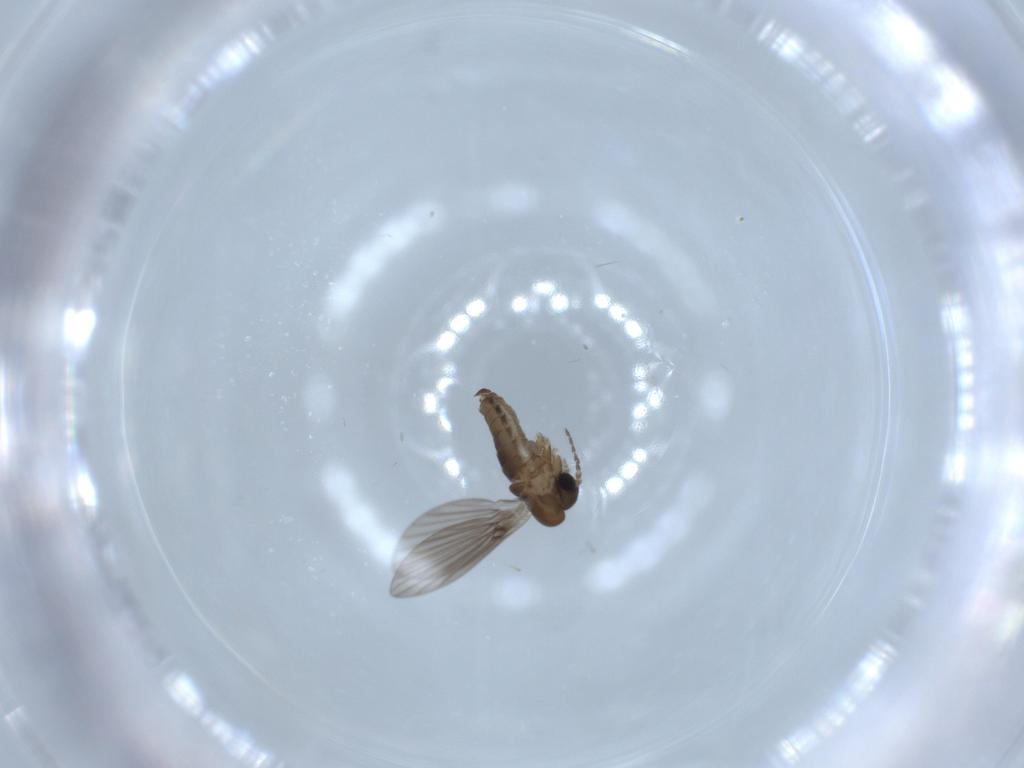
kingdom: Animalia
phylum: Arthropoda
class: Insecta
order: Diptera
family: Psychodidae
